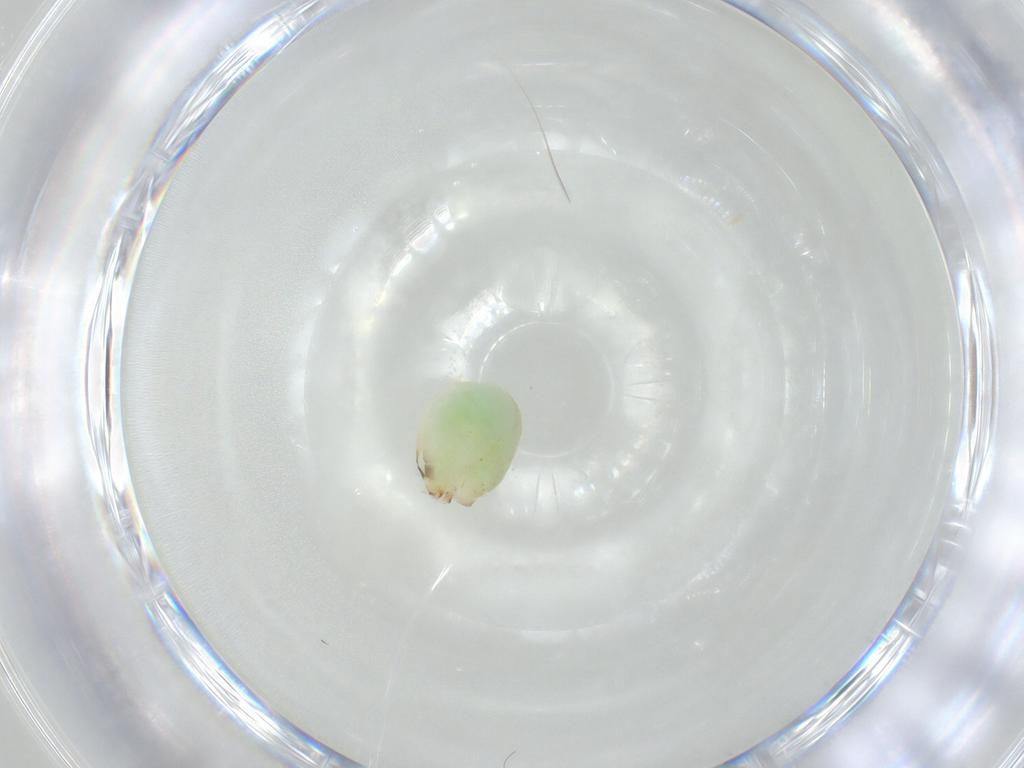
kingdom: Animalia
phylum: Arthropoda
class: Insecta
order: Hymenoptera
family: Dryinidae
